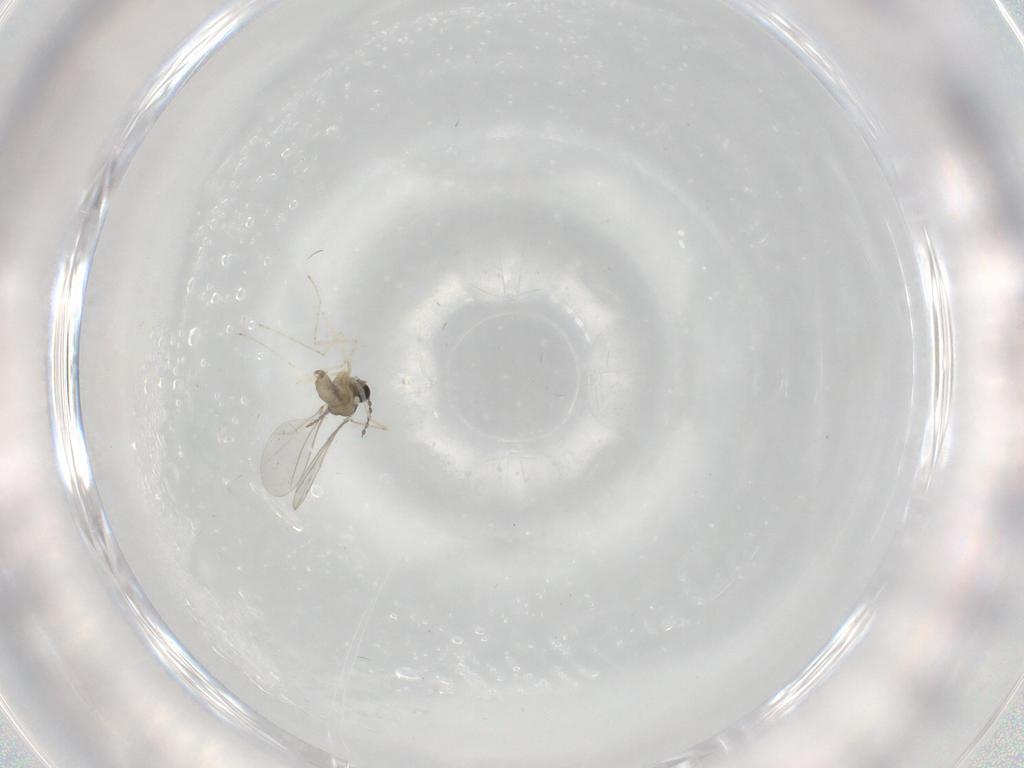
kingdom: Animalia
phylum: Arthropoda
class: Insecta
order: Diptera
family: Cecidomyiidae
